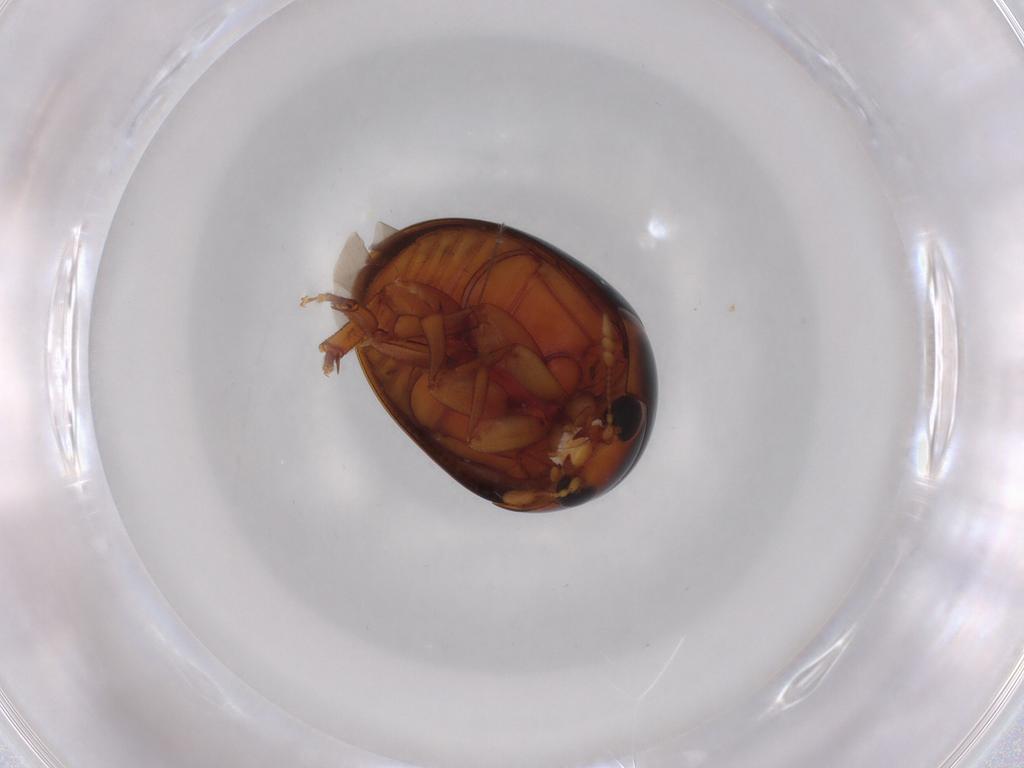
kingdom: Animalia
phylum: Arthropoda
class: Insecta
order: Coleoptera
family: Phalacridae
